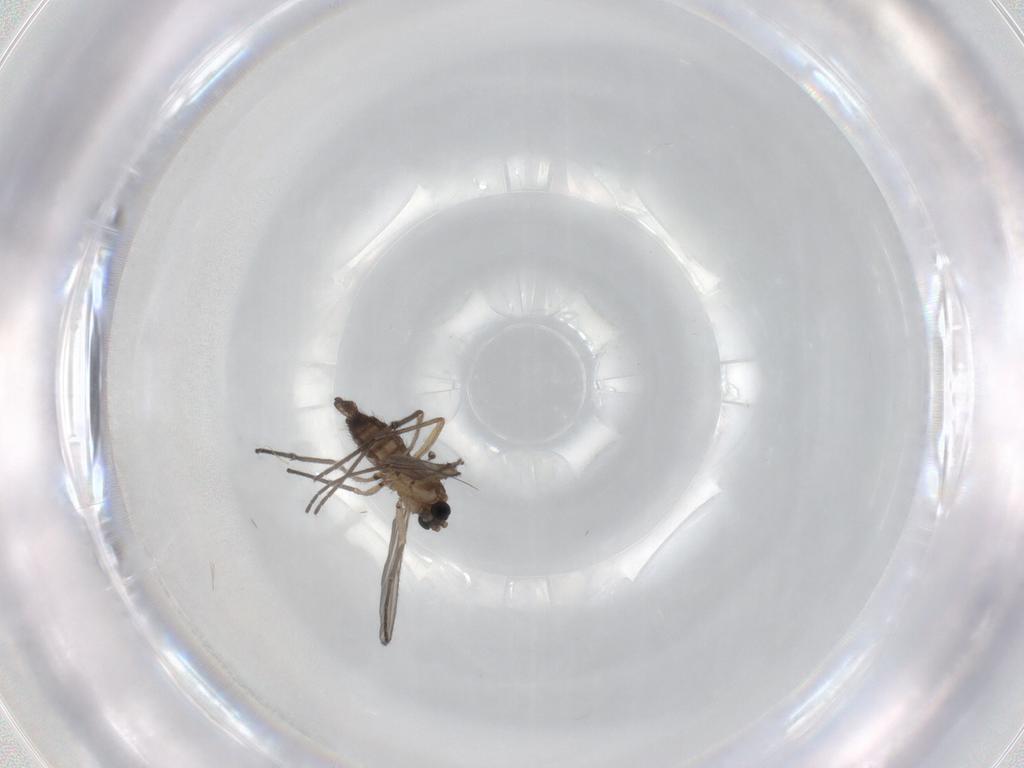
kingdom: Animalia
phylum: Arthropoda
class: Insecta
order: Diptera
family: Sciaridae
